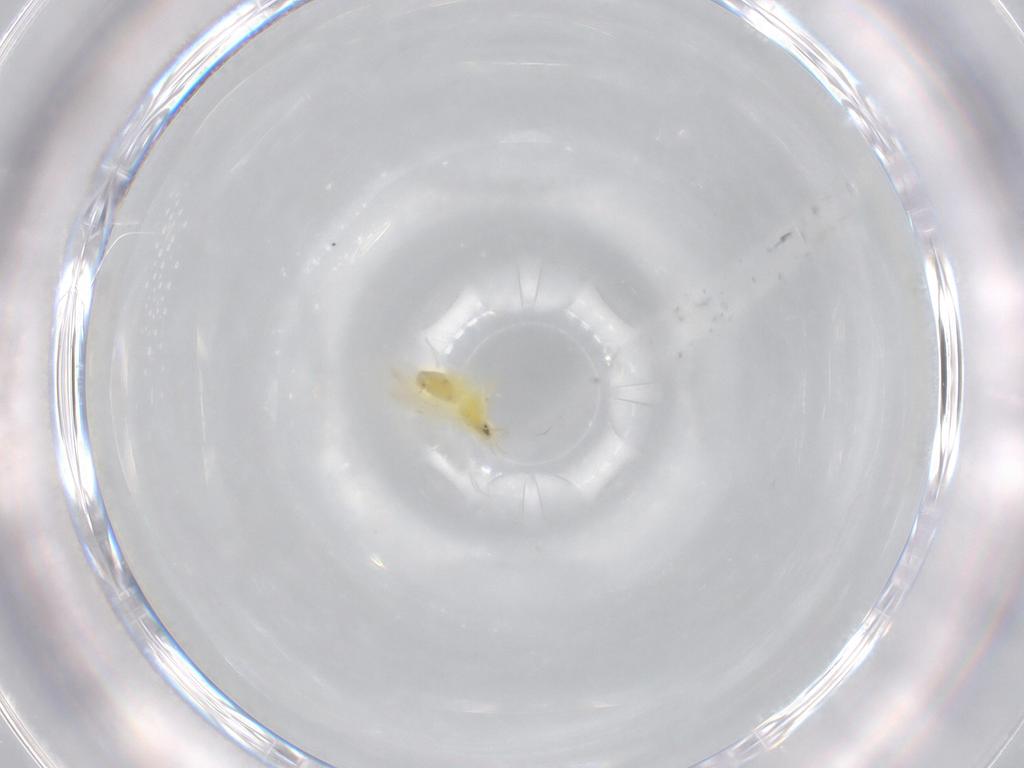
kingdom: Animalia
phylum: Arthropoda
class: Insecta
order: Hemiptera
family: Aleyrodidae
